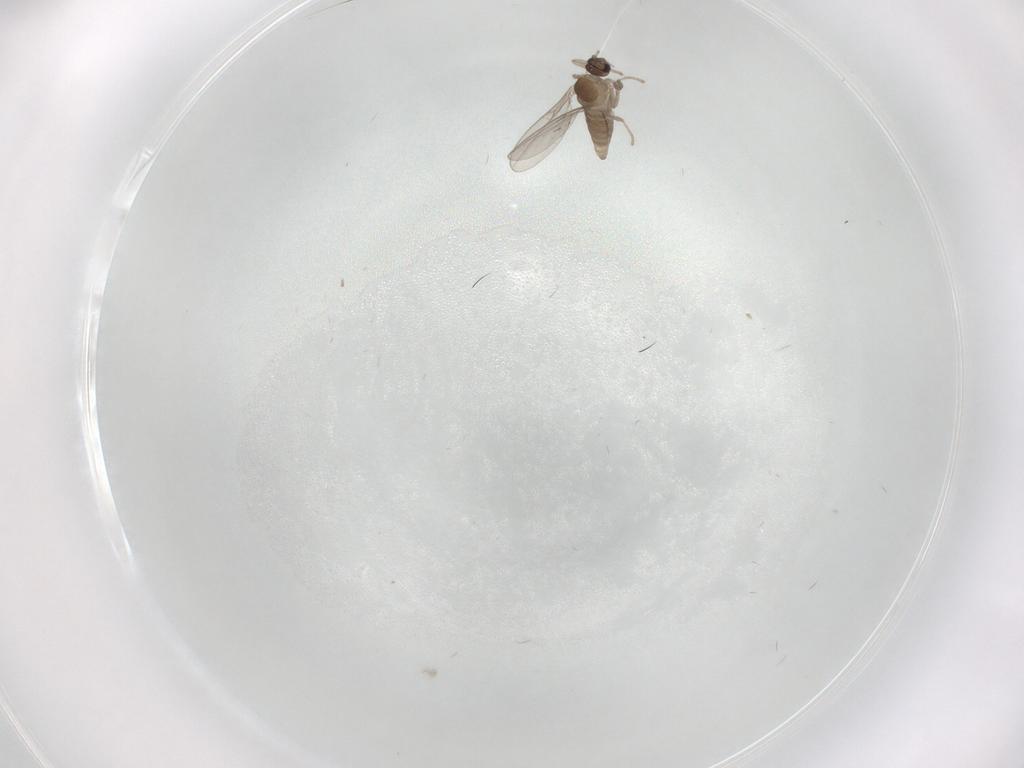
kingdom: Animalia
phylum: Arthropoda
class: Insecta
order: Diptera
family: Cecidomyiidae
